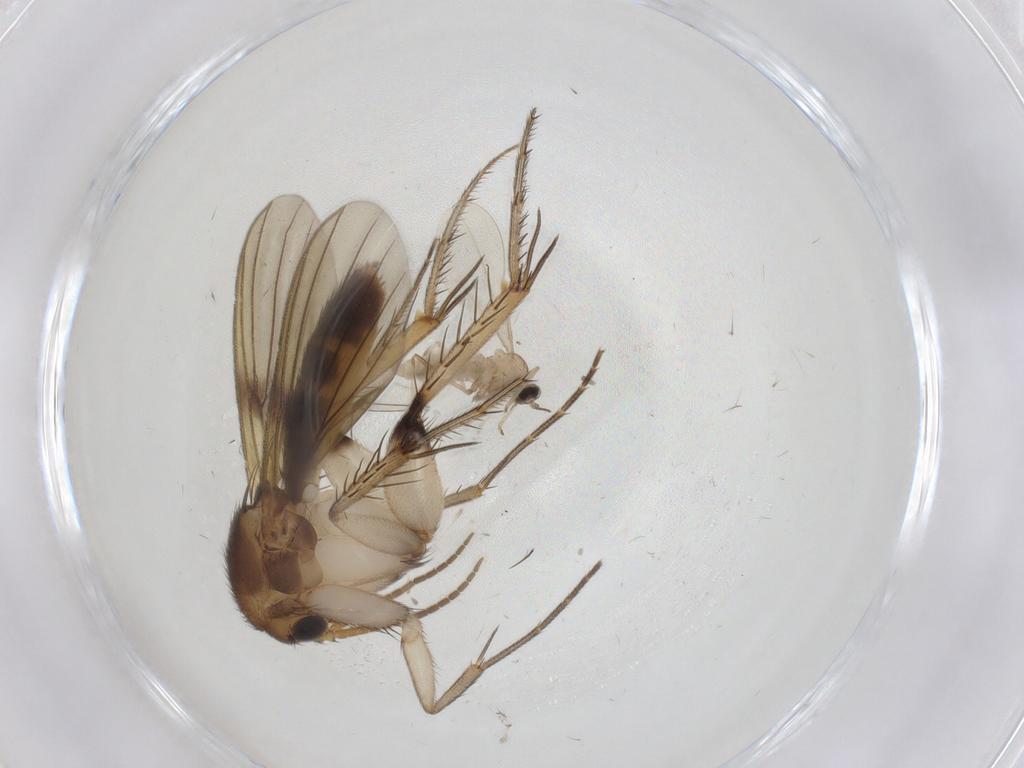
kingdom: Animalia
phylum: Arthropoda
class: Insecta
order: Diptera
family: Mycetophilidae
